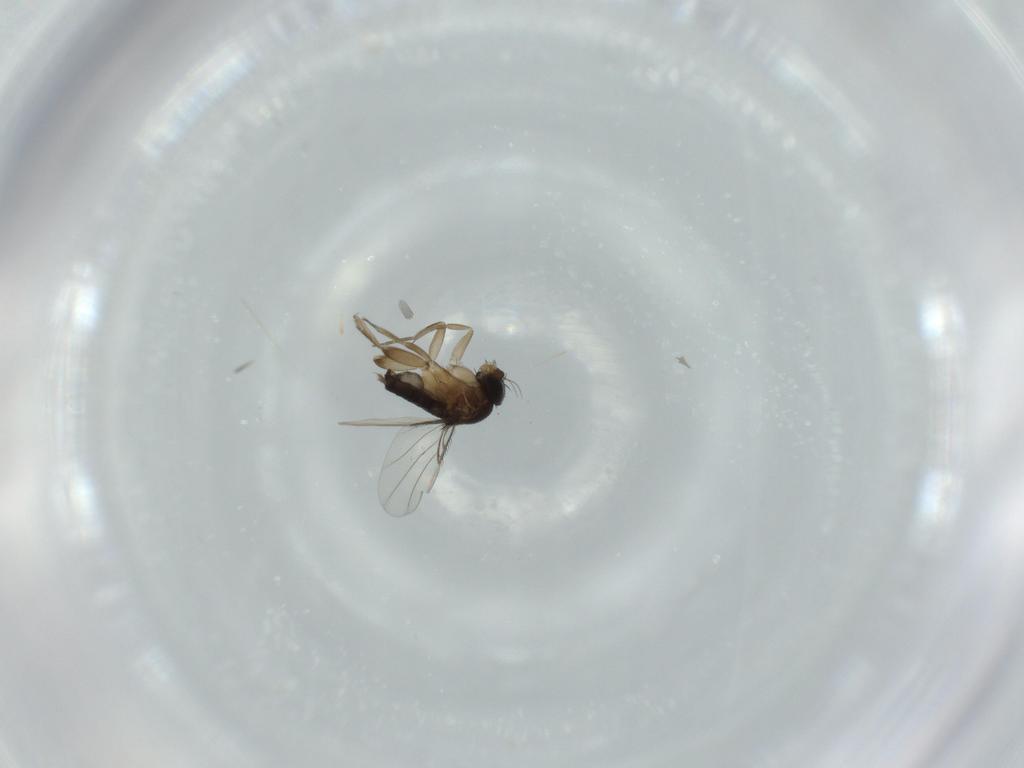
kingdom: Animalia
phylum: Arthropoda
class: Insecta
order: Diptera
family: Phoridae
